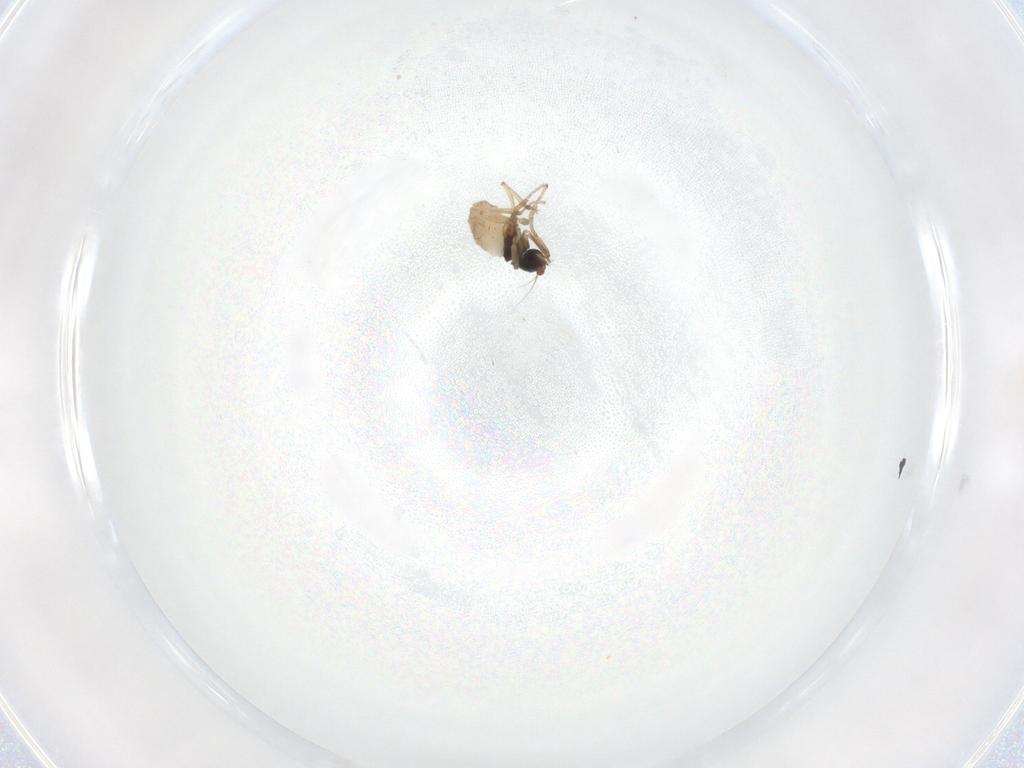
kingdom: Animalia
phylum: Arthropoda
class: Insecta
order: Diptera
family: Phoridae
